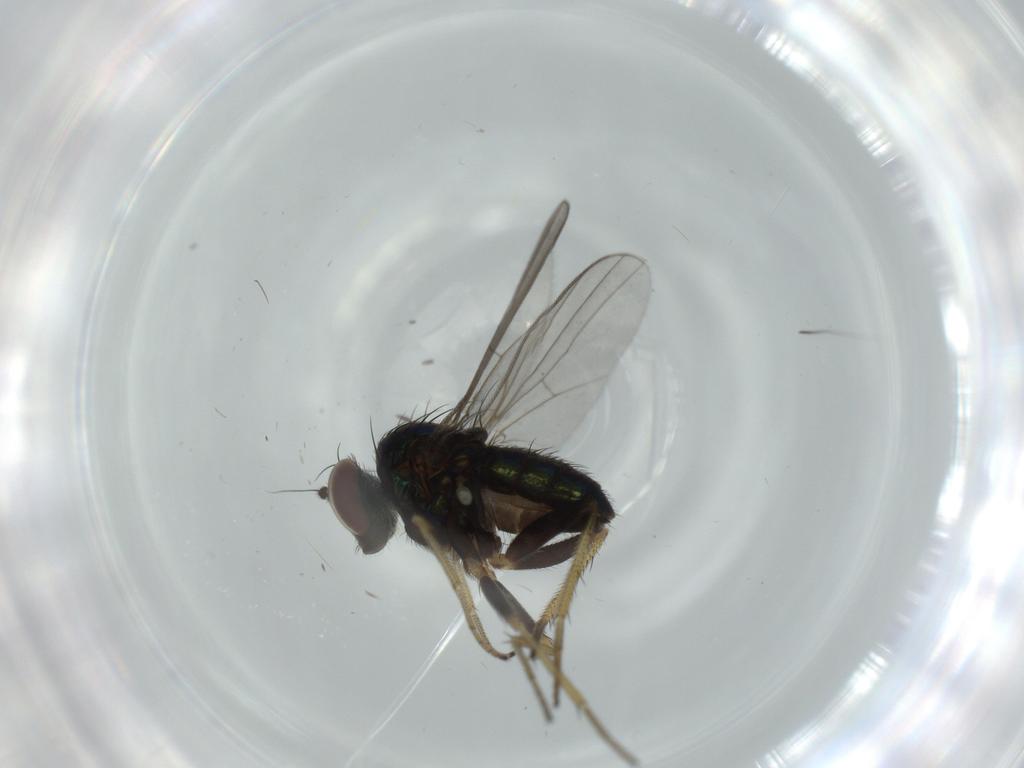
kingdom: Animalia
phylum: Arthropoda
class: Insecta
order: Diptera
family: Dolichopodidae
